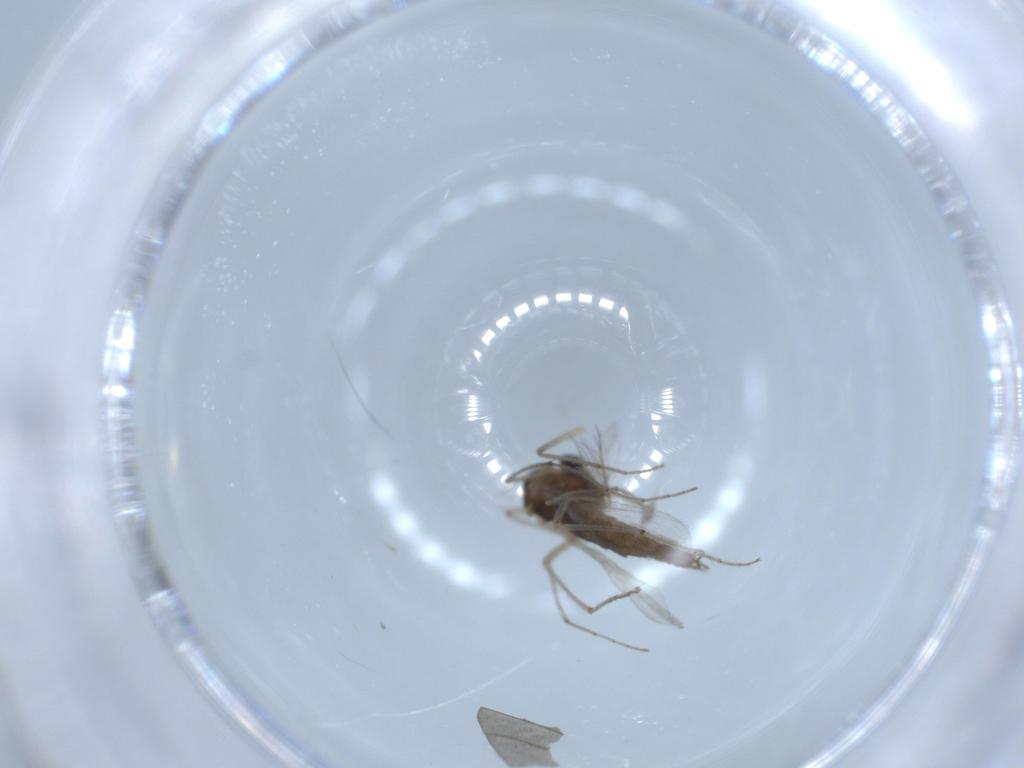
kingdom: Animalia
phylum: Arthropoda
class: Insecta
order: Diptera
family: Chironomidae
